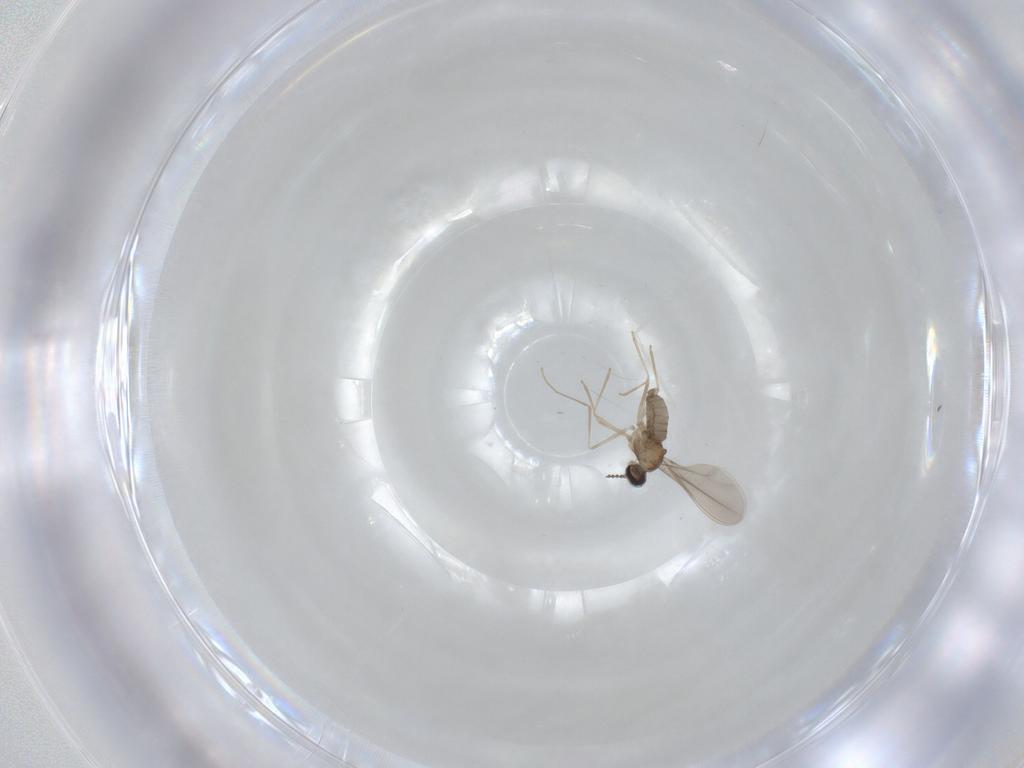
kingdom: Animalia
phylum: Arthropoda
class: Insecta
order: Diptera
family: Cecidomyiidae
